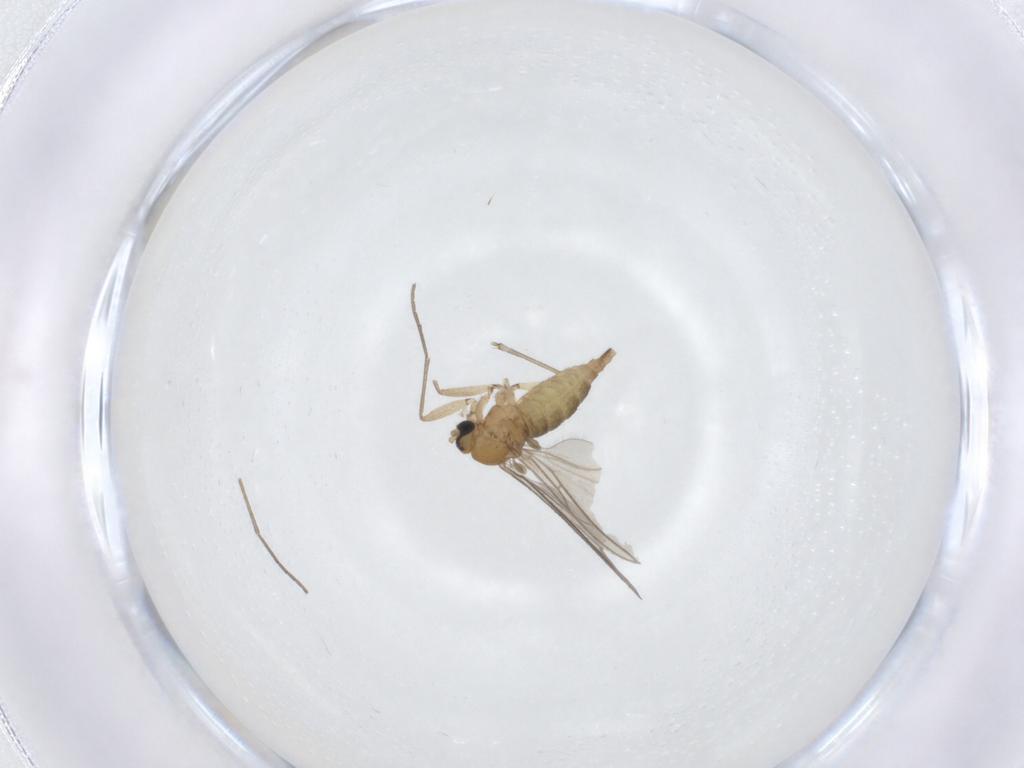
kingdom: Animalia
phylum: Arthropoda
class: Insecta
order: Diptera
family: Sciaridae
